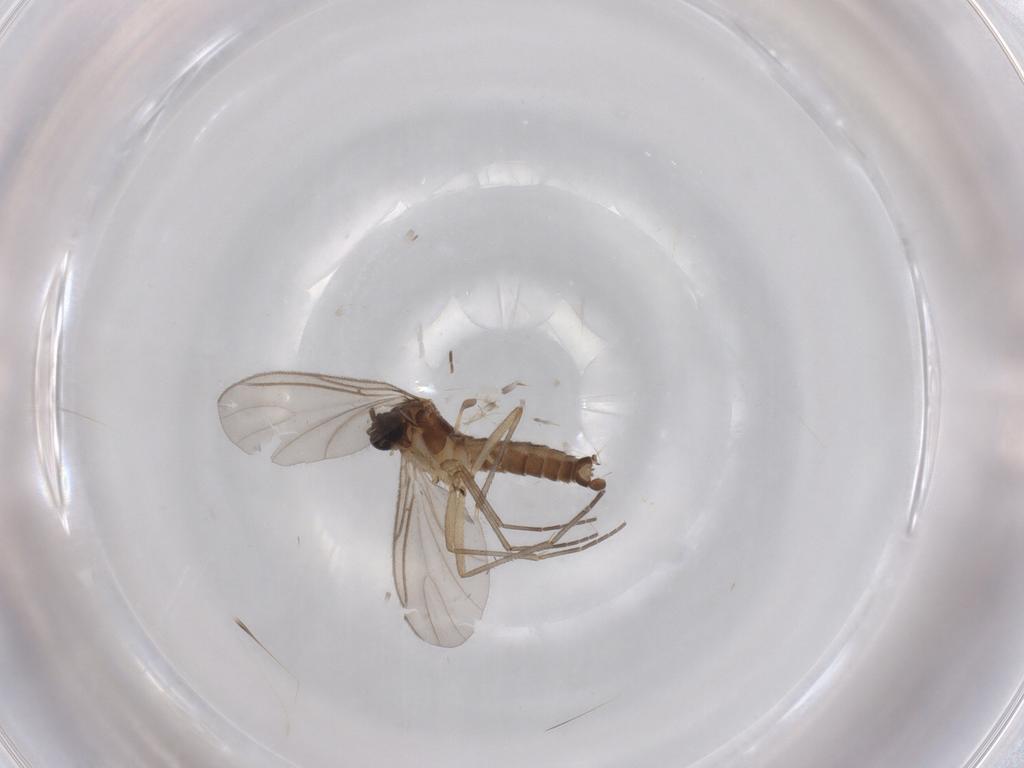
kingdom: Animalia
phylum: Arthropoda
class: Insecta
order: Diptera
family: Sciaridae
